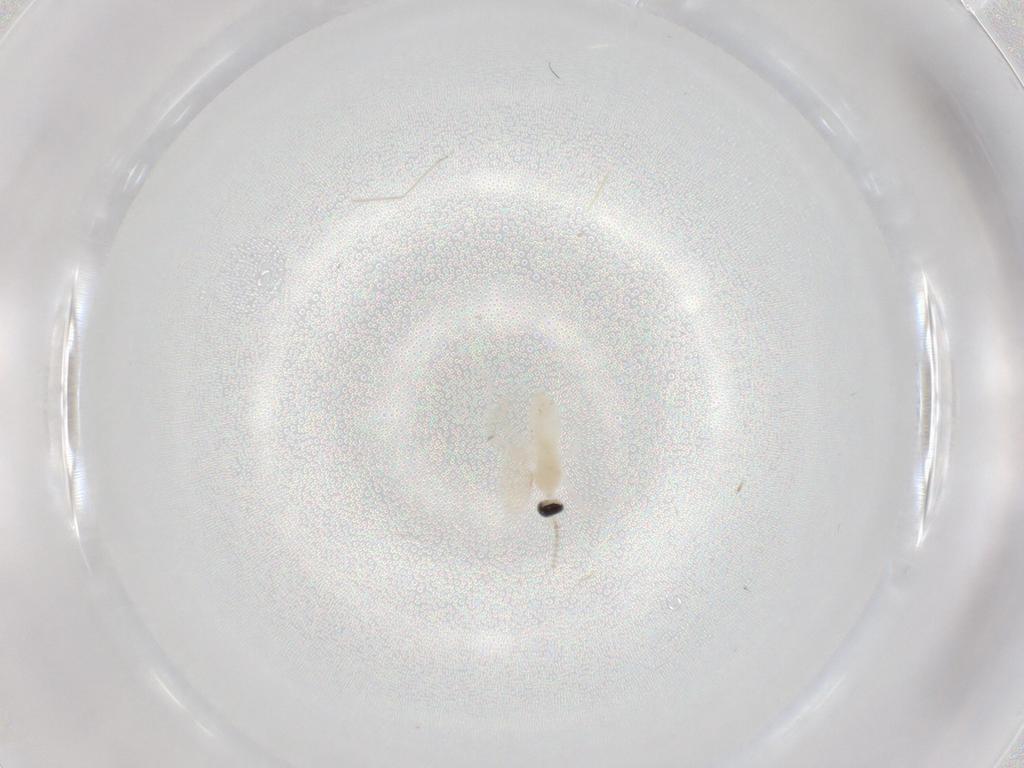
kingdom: Animalia
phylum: Arthropoda
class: Insecta
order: Diptera
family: Cecidomyiidae
